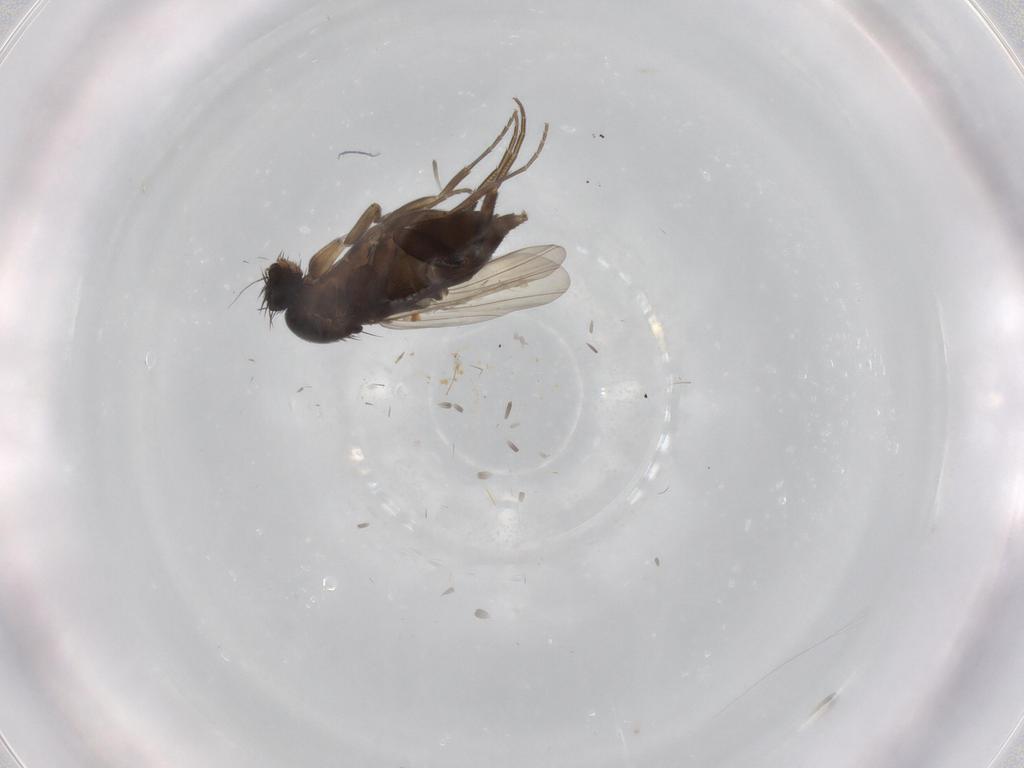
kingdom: Animalia
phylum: Arthropoda
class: Insecta
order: Diptera
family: Phoridae
